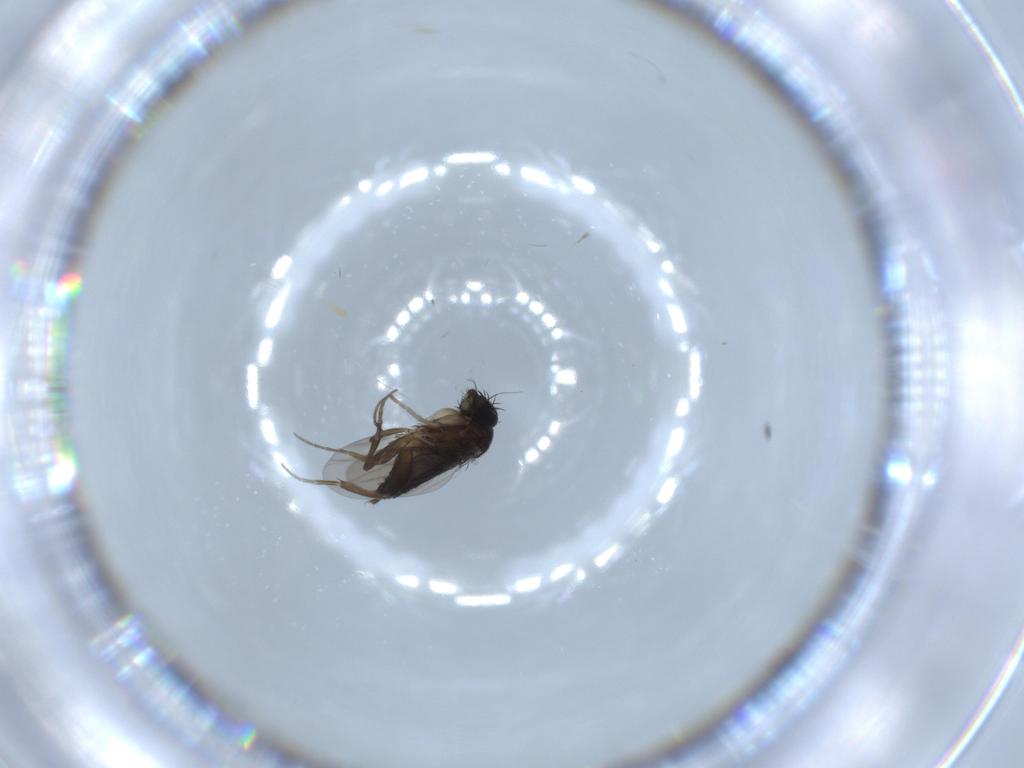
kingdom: Animalia
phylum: Arthropoda
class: Insecta
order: Diptera
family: Phoridae
